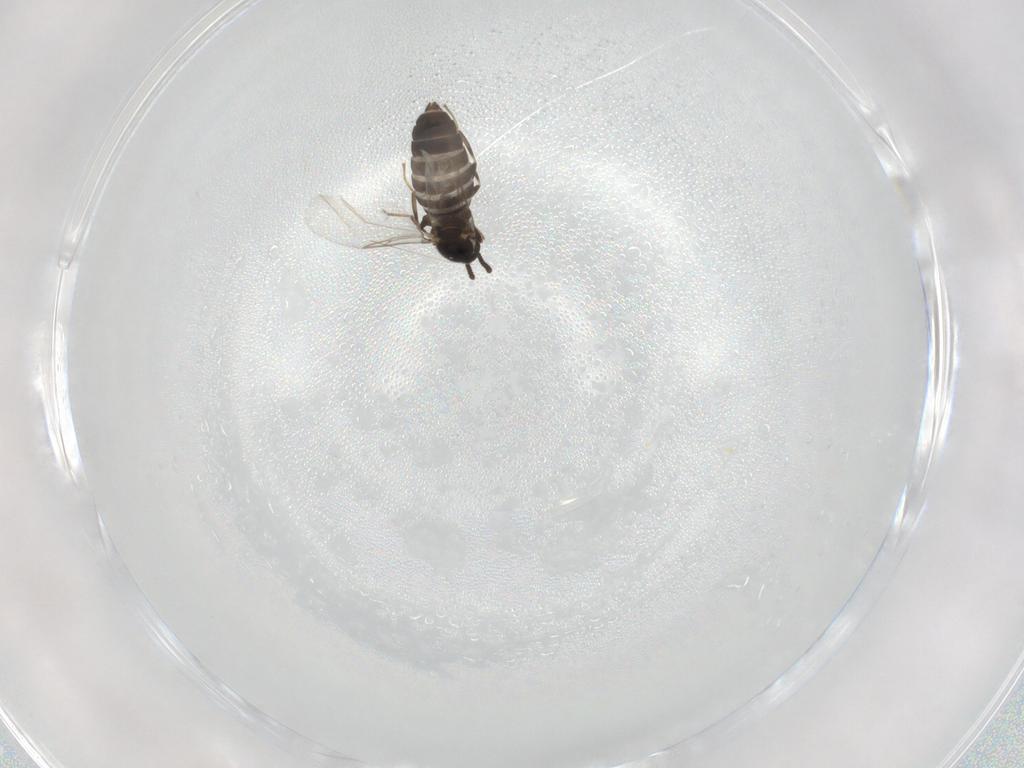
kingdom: Animalia
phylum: Arthropoda
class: Insecta
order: Diptera
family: Scatopsidae
